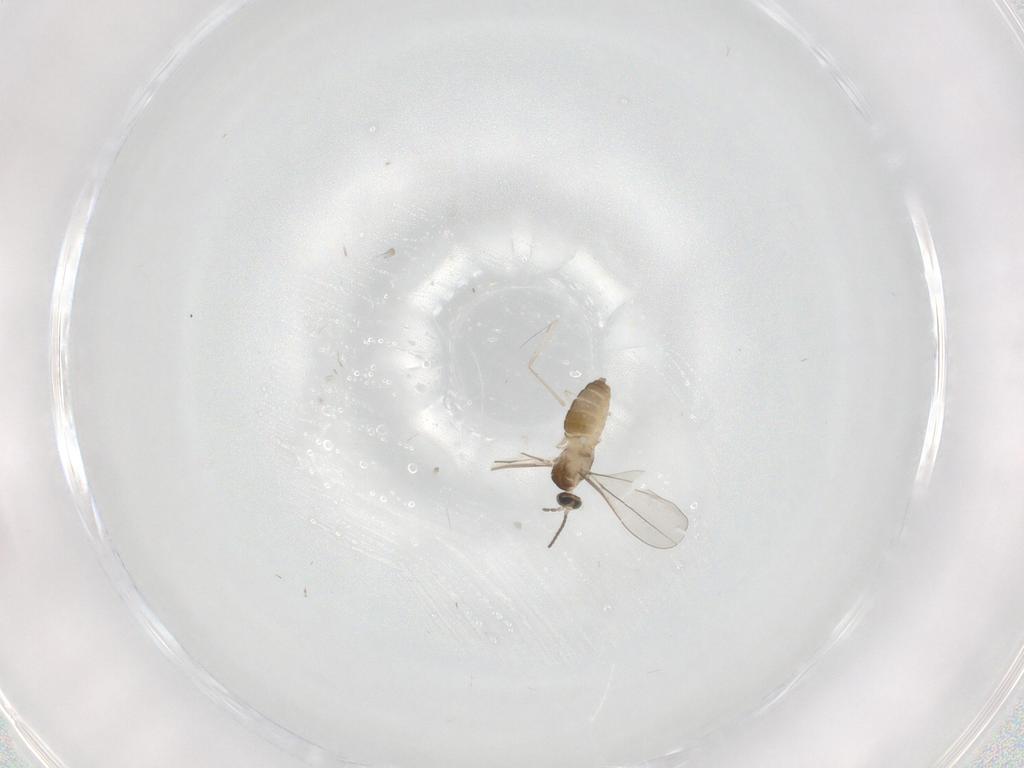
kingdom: Animalia
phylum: Arthropoda
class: Insecta
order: Diptera
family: Cecidomyiidae
